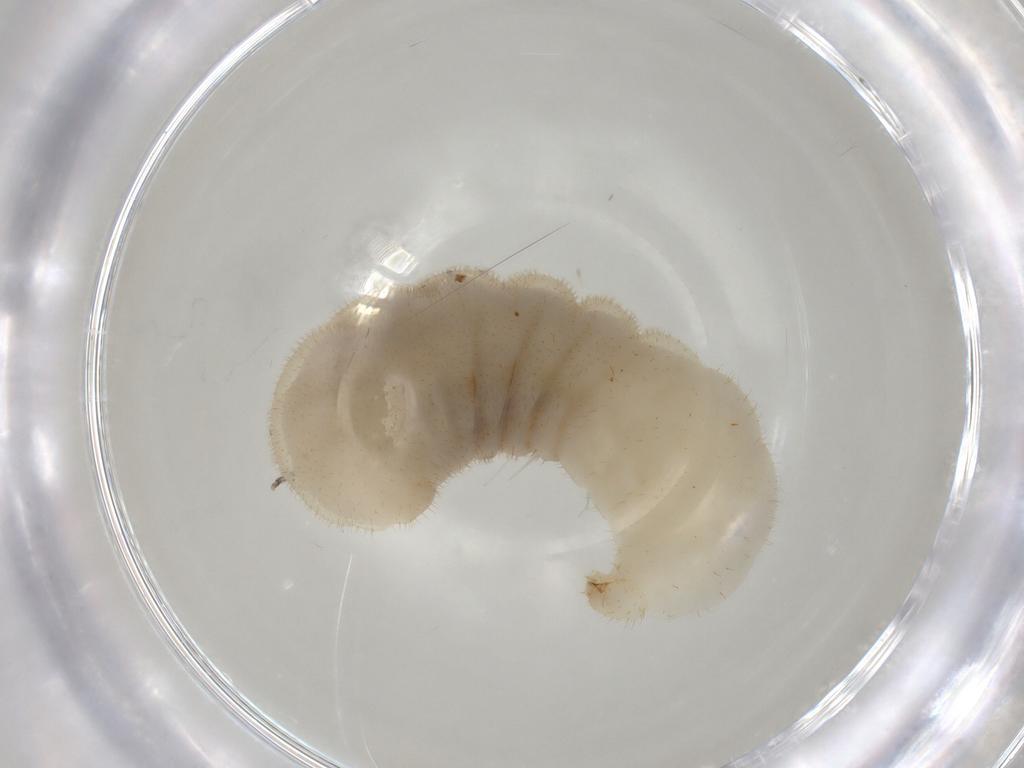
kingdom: Animalia
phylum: Arthropoda
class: Insecta
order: Hymenoptera
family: Formicidae
